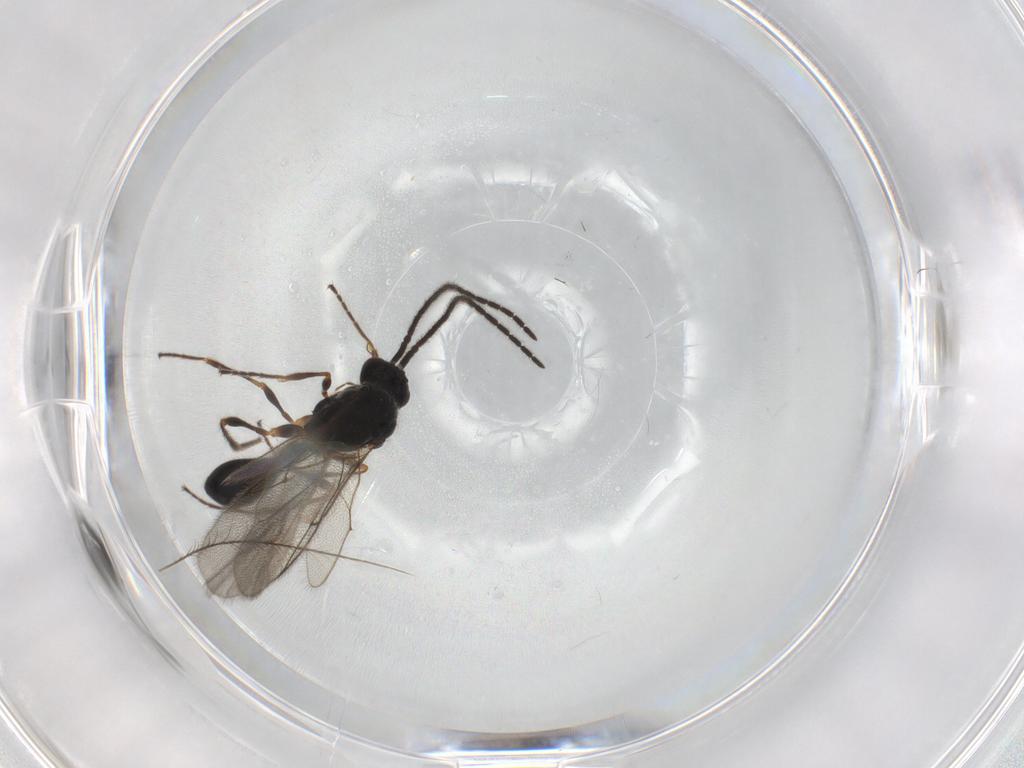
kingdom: Animalia
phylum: Arthropoda
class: Insecta
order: Hymenoptera
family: Diapriidae
